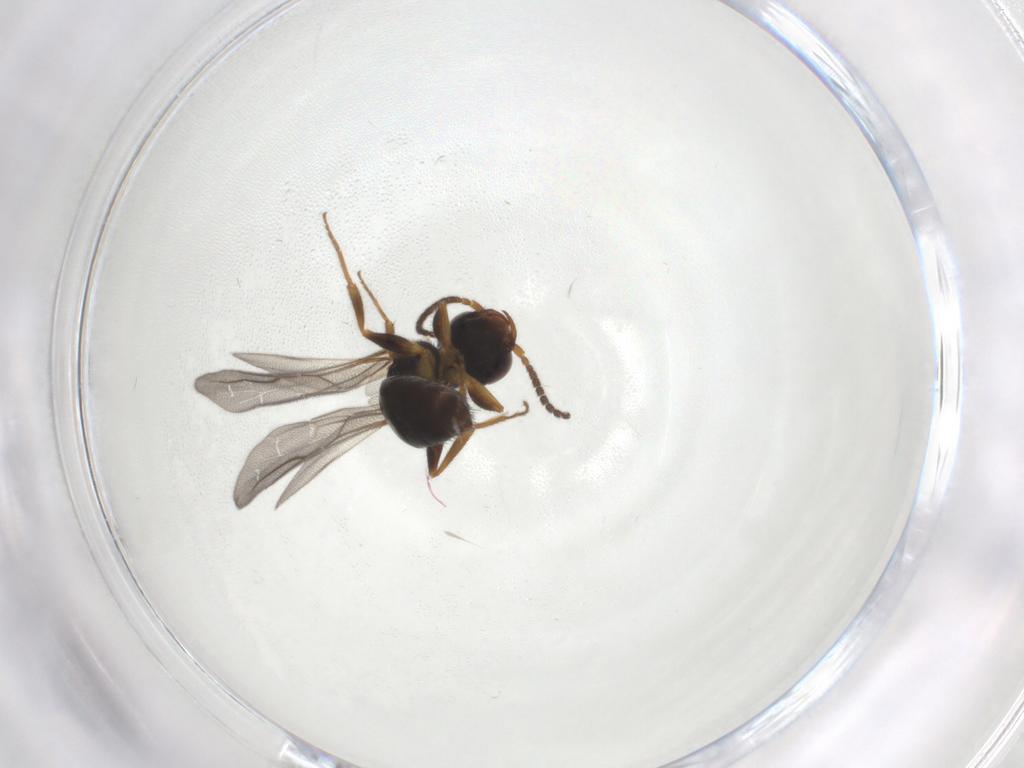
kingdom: Animalia
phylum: Arthropoda
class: Insecta
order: Hymenoptera
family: Bethylidae
